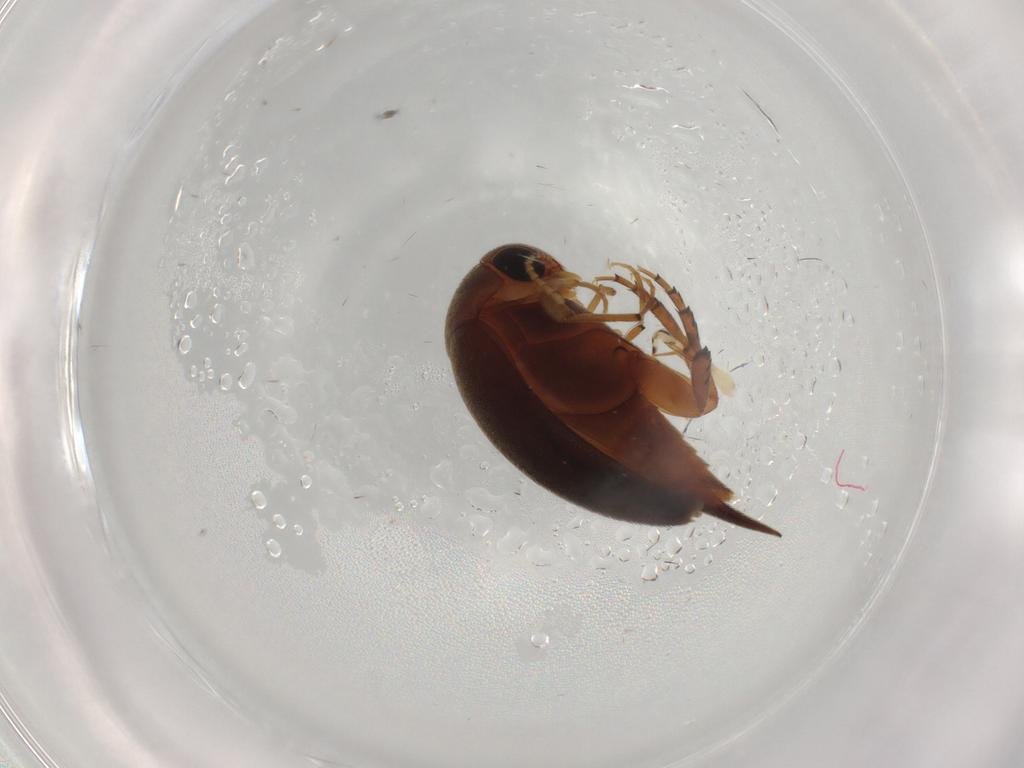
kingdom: Animalia
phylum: Arthropoda
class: Insecta
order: Coleoptera
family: Mordellidae
